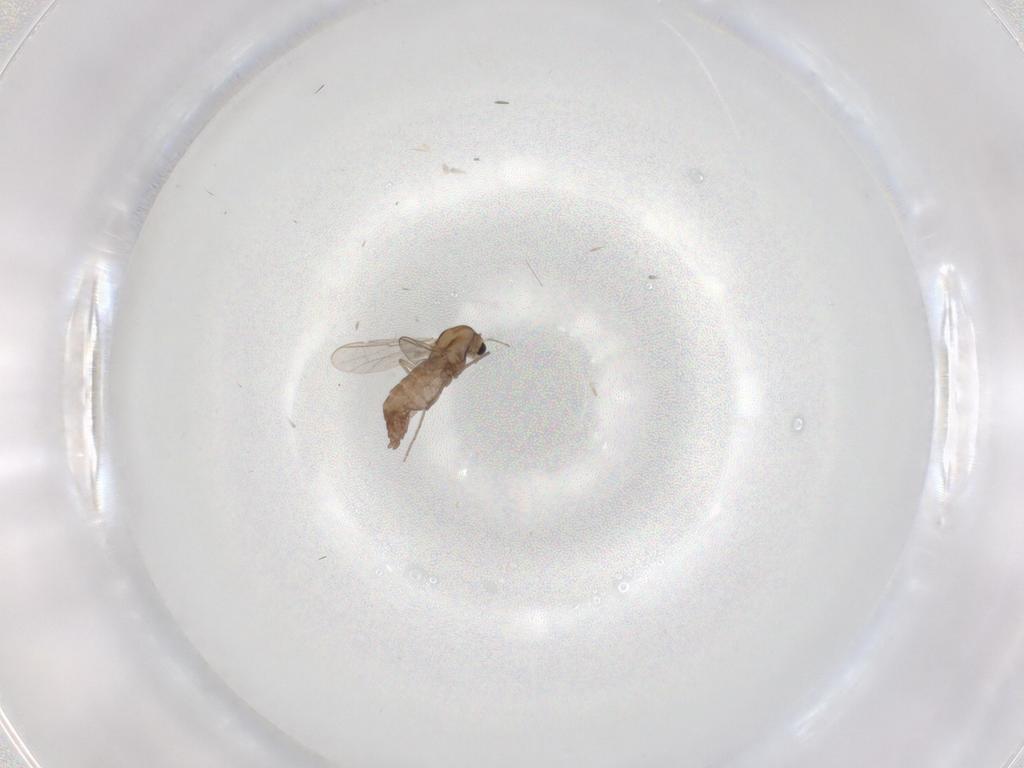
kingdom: Animalia
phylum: Arthropoda
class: Insecta
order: Diptera
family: Chironomidae
